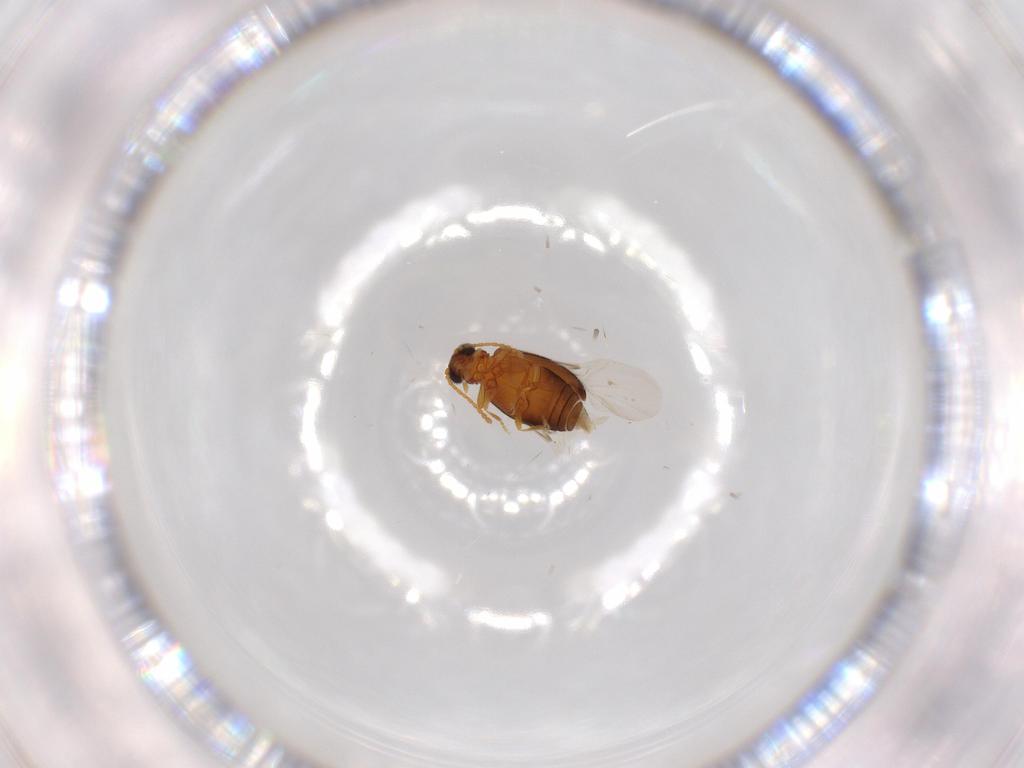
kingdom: Animalia
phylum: Arthropoda
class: Insecta
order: Coleoptera
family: Aderidae
